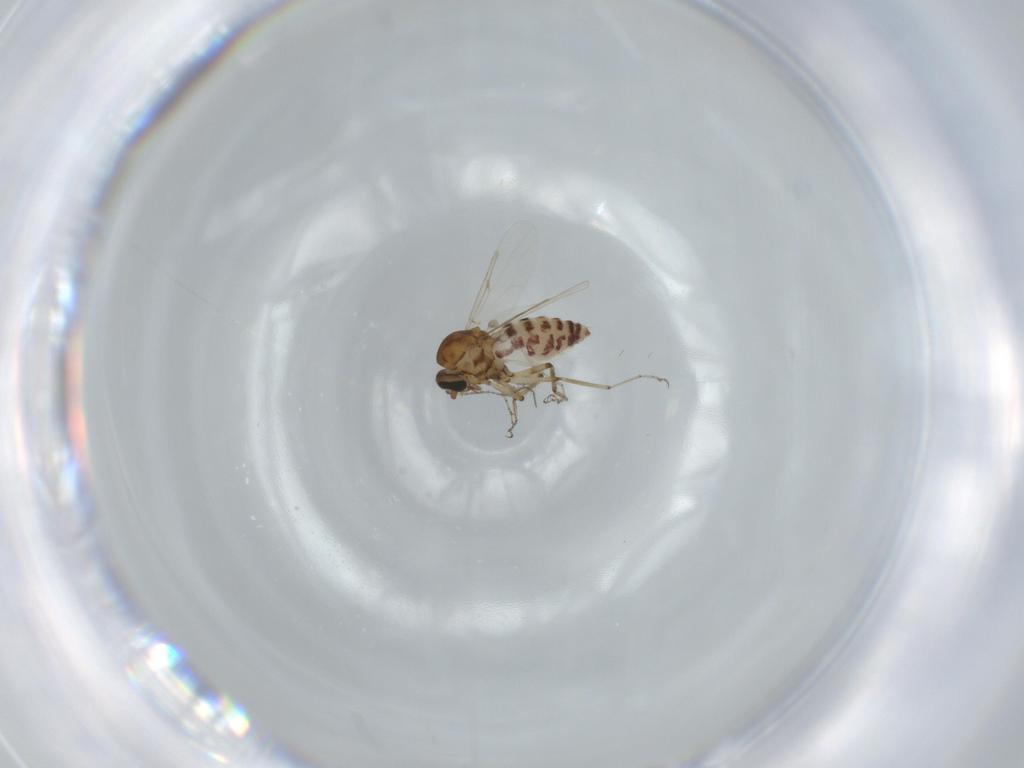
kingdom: Animalia
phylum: Arthropoda
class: Insecta
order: Diptera
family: Ceratopogonidae
